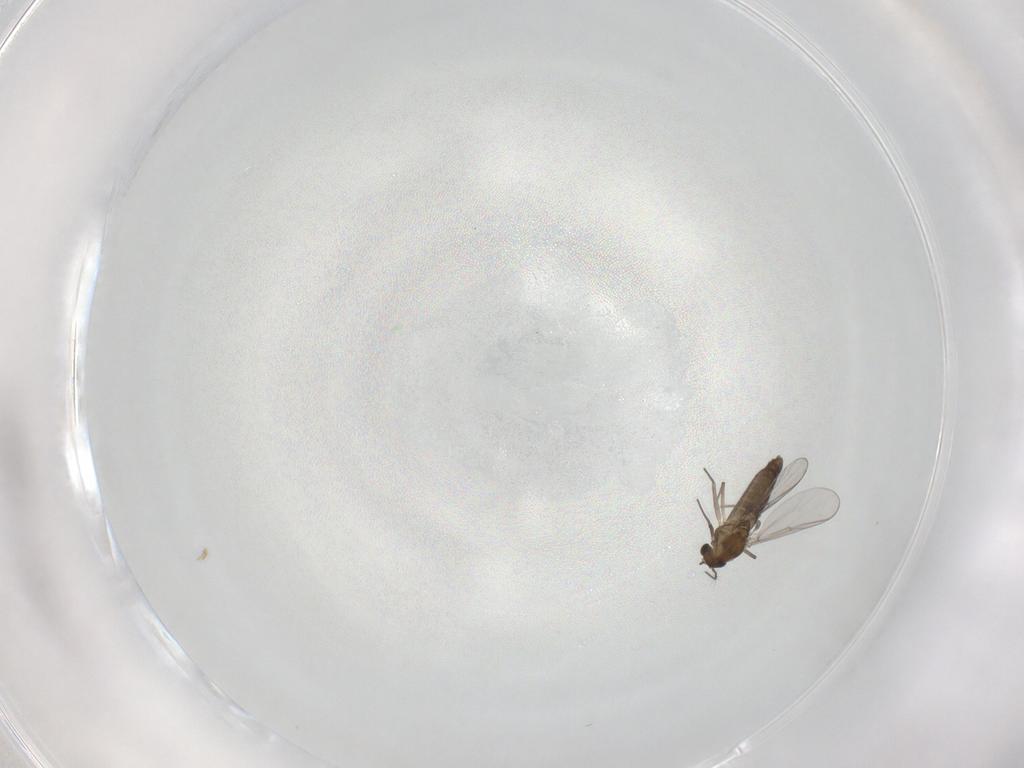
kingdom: Animalia
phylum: Arthropoda
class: Insecta
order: Diptera
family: Chironomidae
